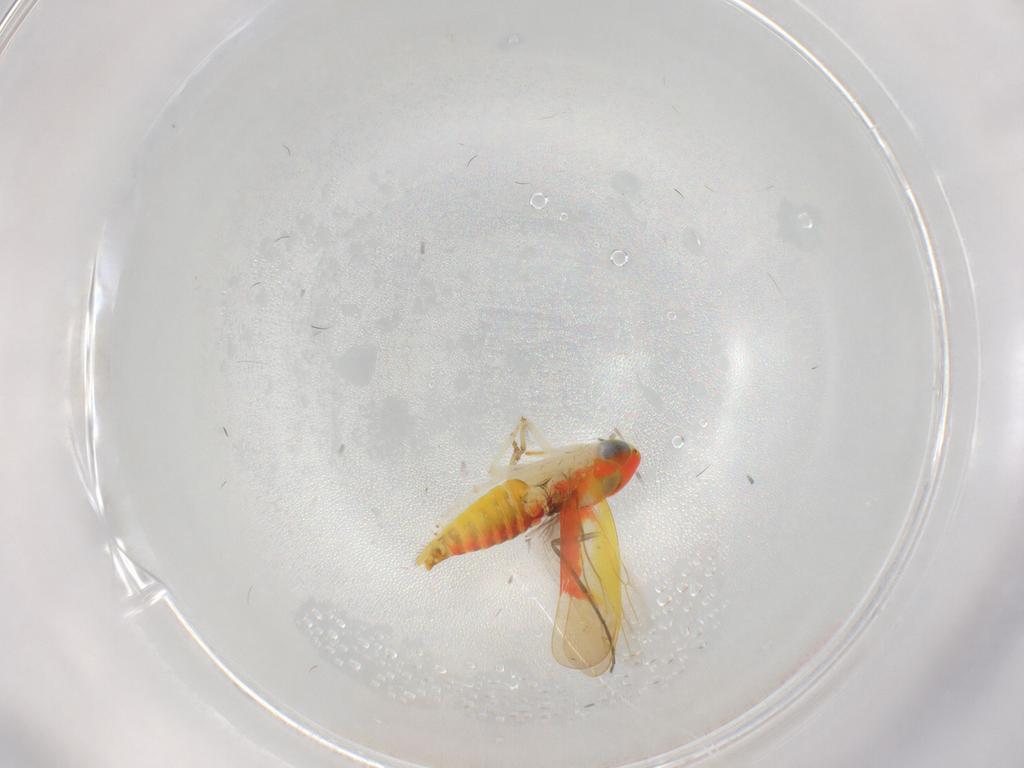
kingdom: Animalia
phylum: Arthropoda
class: Insecta
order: Hemiptera
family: Cicadellidae
